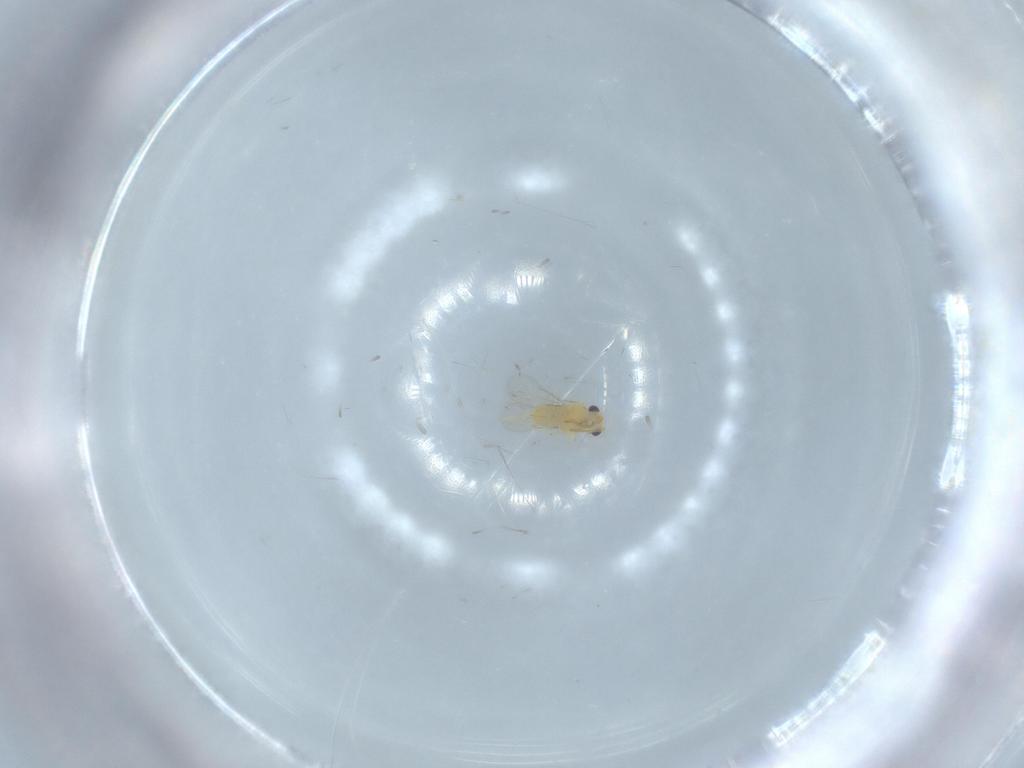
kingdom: Animalia
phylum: Arthropoda
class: Insecta
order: Hymenoptera
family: Aphelinidae
